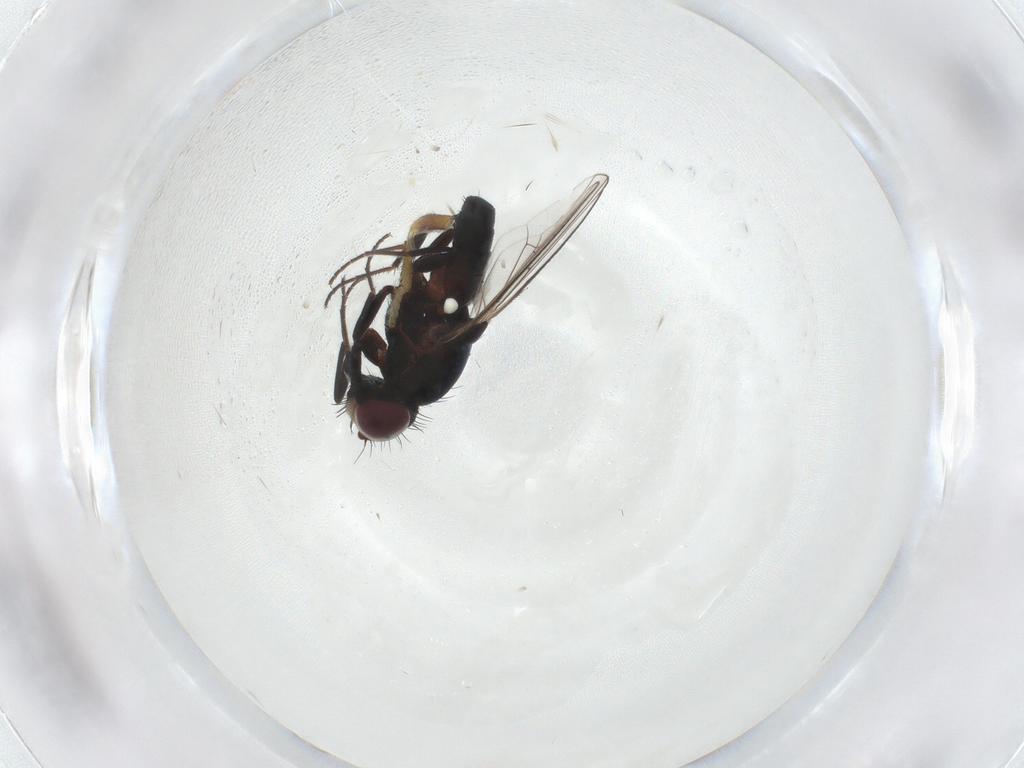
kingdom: Animalia
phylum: Arthropoda
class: Insecta
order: Diptera
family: Carnidae
